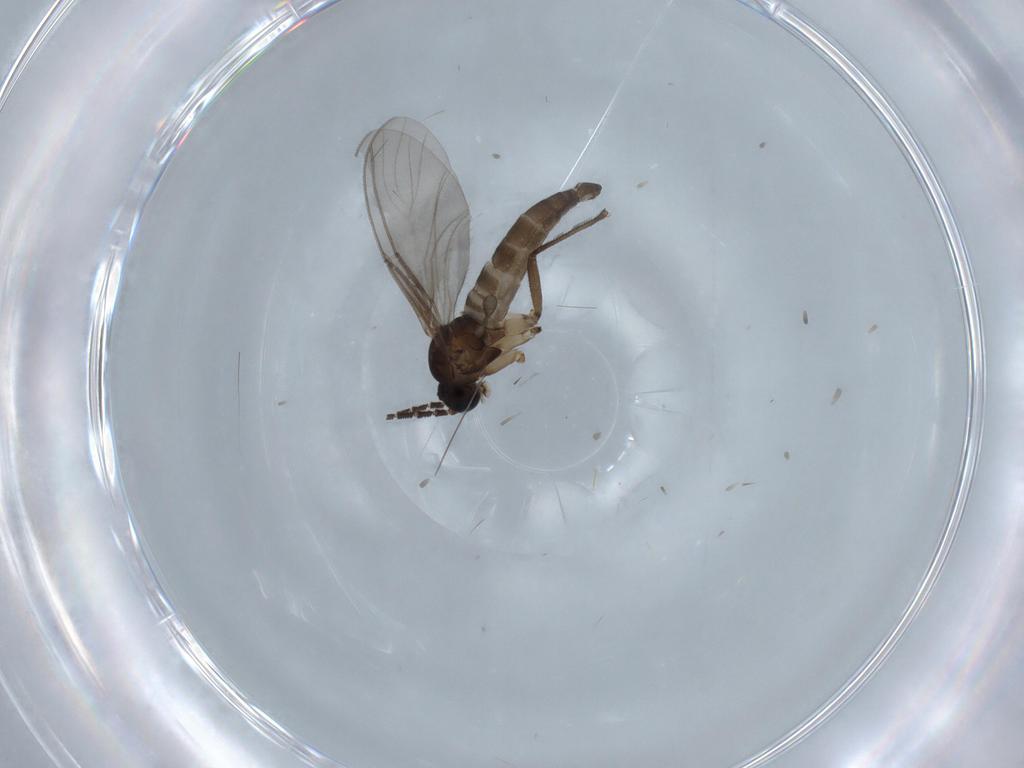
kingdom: Animalia
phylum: Arthropoda
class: Insecta
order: Diptera
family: Ceratopogonidae
